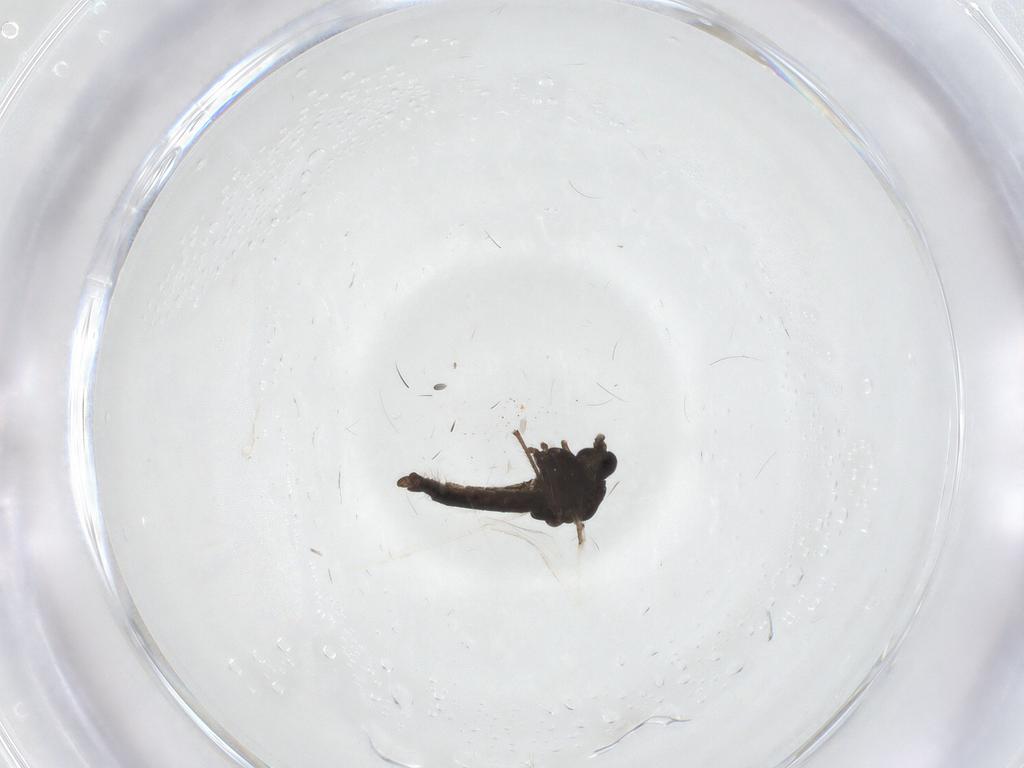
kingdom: Animalia
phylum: Arthropoda
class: Insecta
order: Diptera
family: Chironomidae
